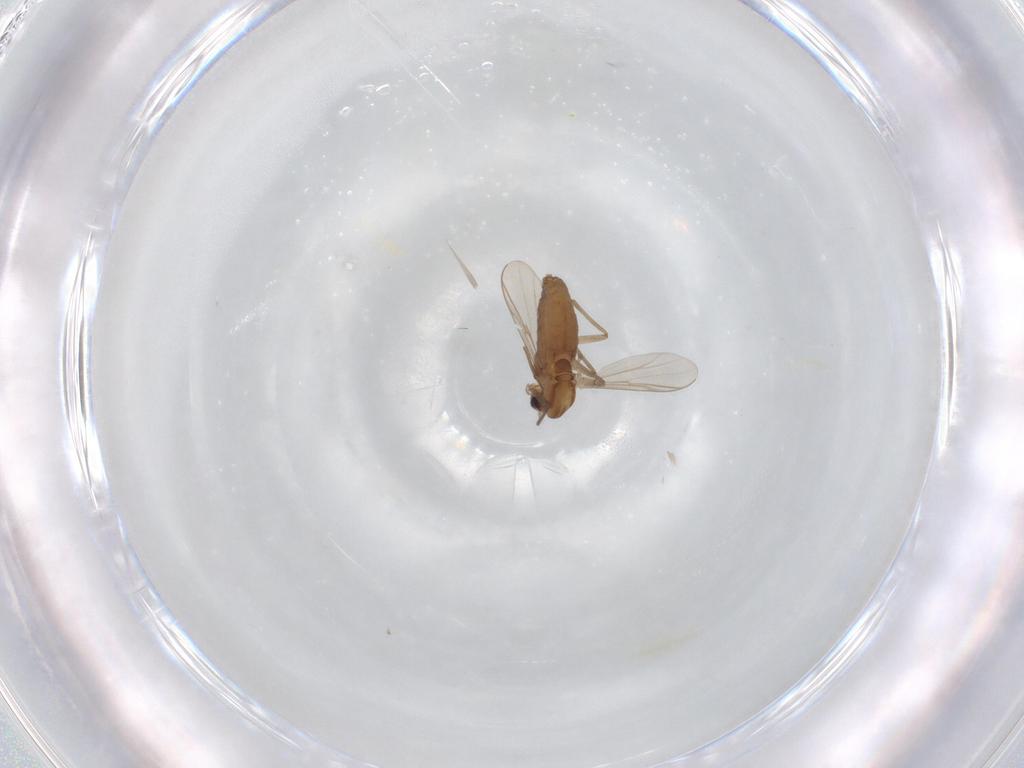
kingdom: Animalia
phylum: Arthropoda
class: Insecta
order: Diptera
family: Chironomidae
